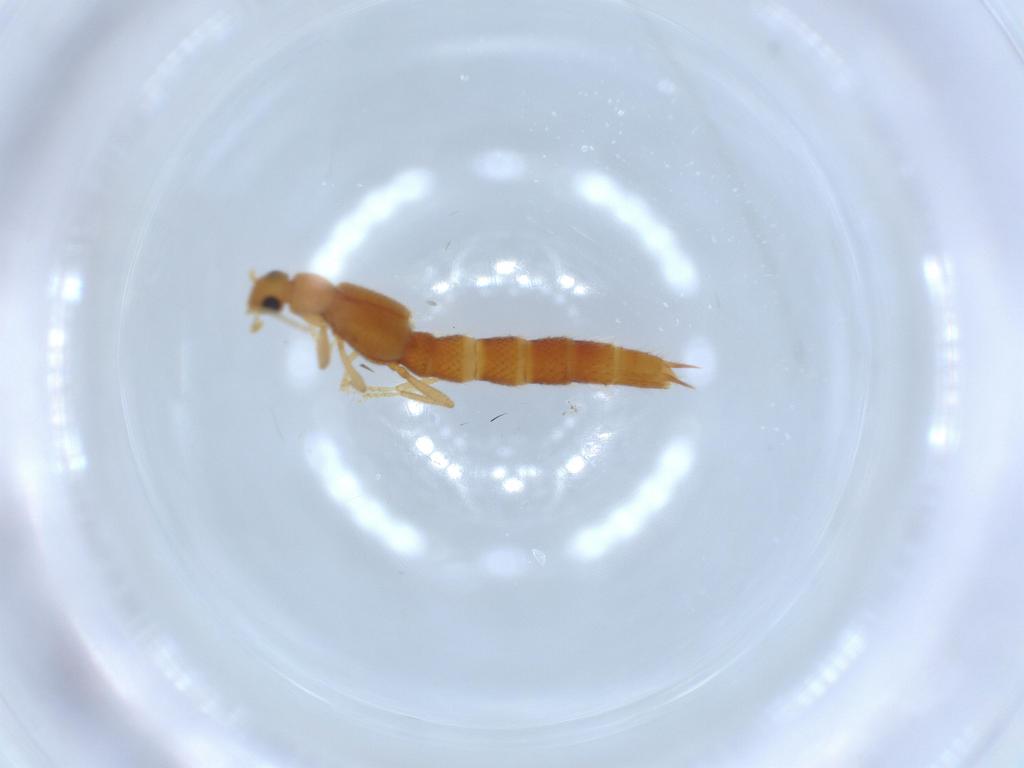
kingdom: Animalia
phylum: Arthropoda
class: Insecta
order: Coleoptera
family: Staphylinidae
